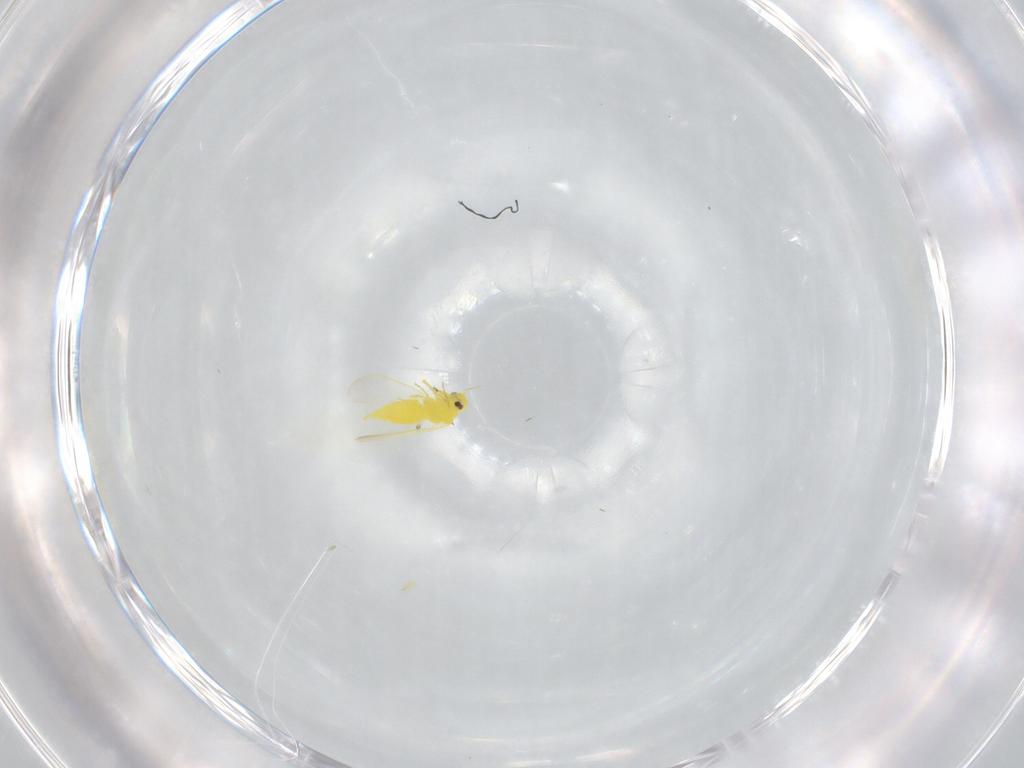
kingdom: Animalia
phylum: Arthropoda
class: Insecta
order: Hemiptera
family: Aleyrodidae
